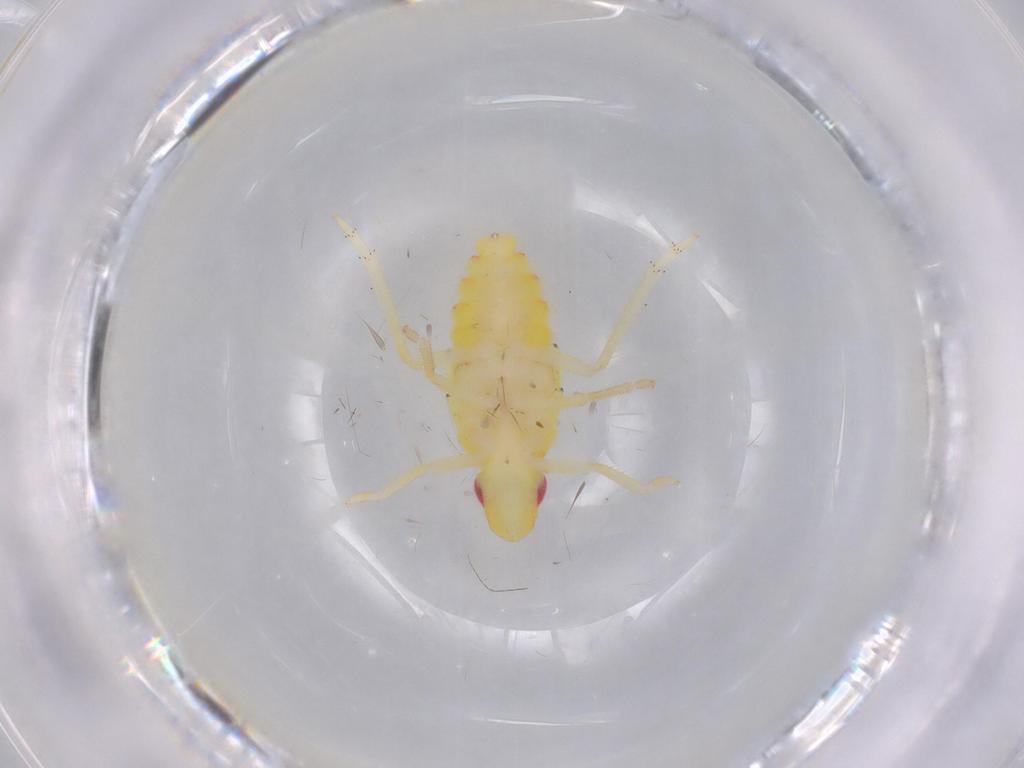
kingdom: Animalia
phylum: Arthropoda
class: Insecta
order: Hemiptera
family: Tropiduchidae
